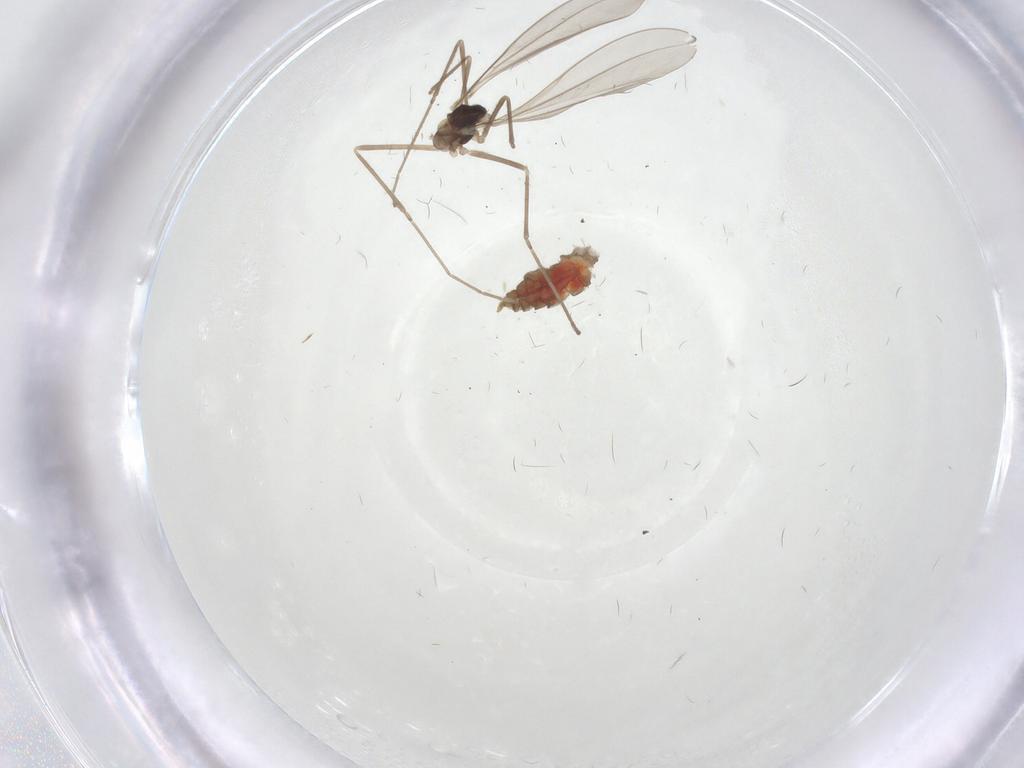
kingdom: Animalia
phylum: Arthropoda
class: Insecta
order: Diptera
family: Cecidomyiidae
